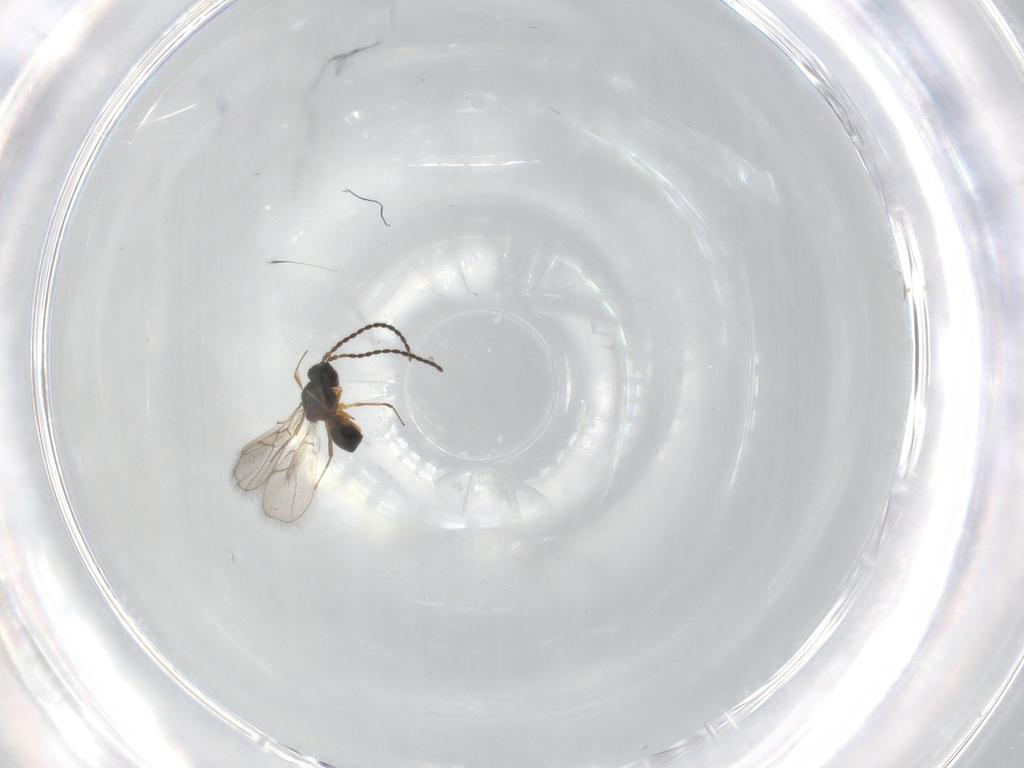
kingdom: Animalia
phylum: Arthropoda
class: Insecta
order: Hymenoptera
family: Figitidae
